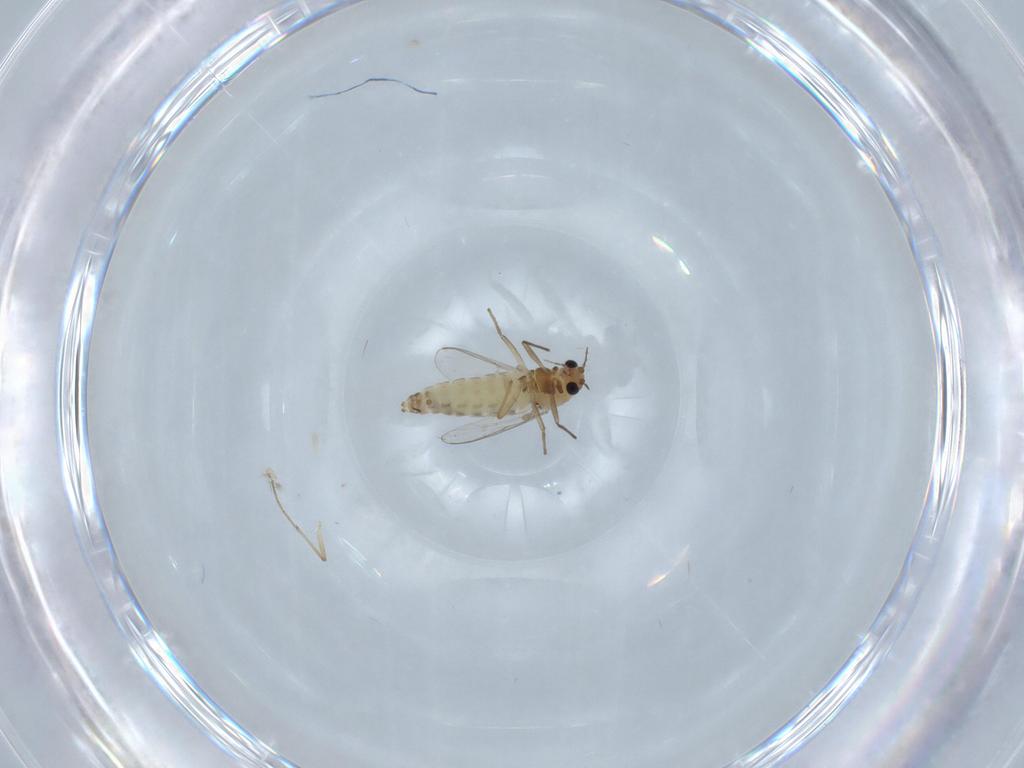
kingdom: Animalia
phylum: Arthropoda
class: Insecta
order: Diptera
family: Chironomidae
